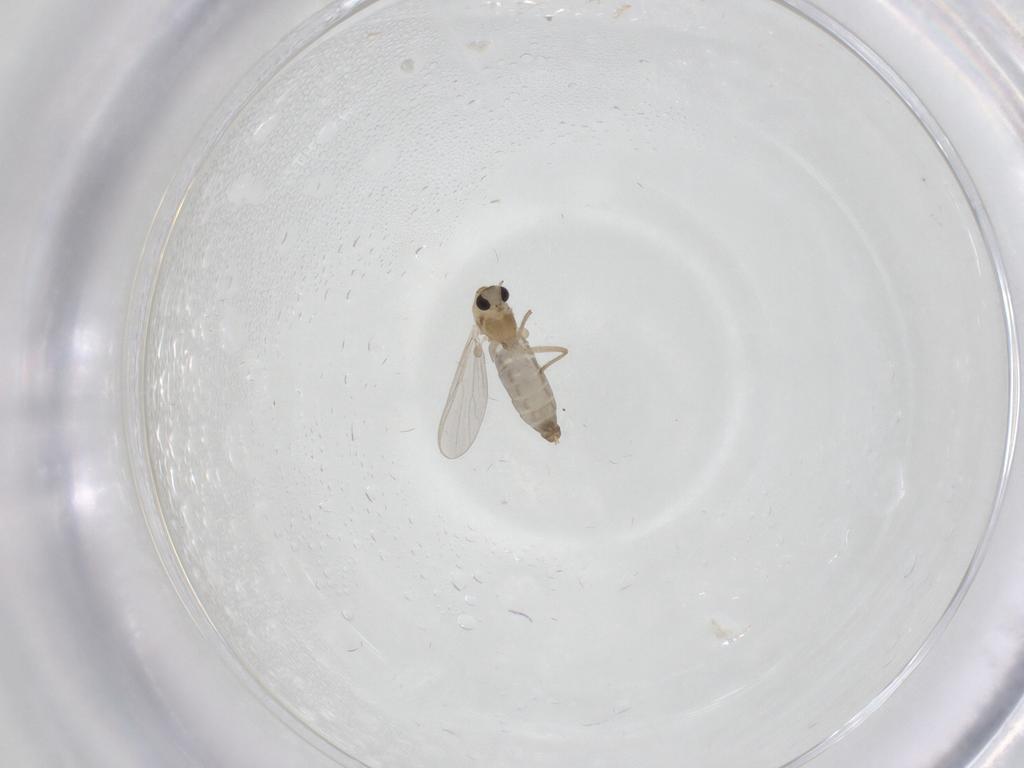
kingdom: Animalia
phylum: Arthropoda
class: Insecta
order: Diptera
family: Chironomidae
